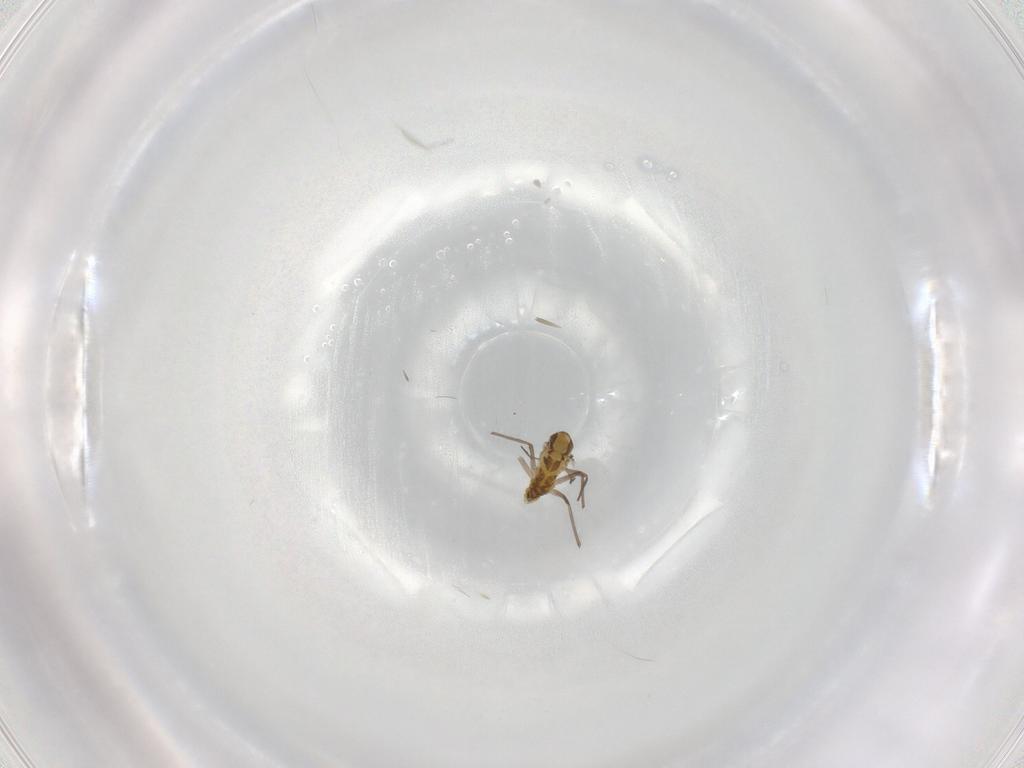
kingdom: Animalia
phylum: Arthropoda
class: Insecta
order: Diptera
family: Chironomidae
